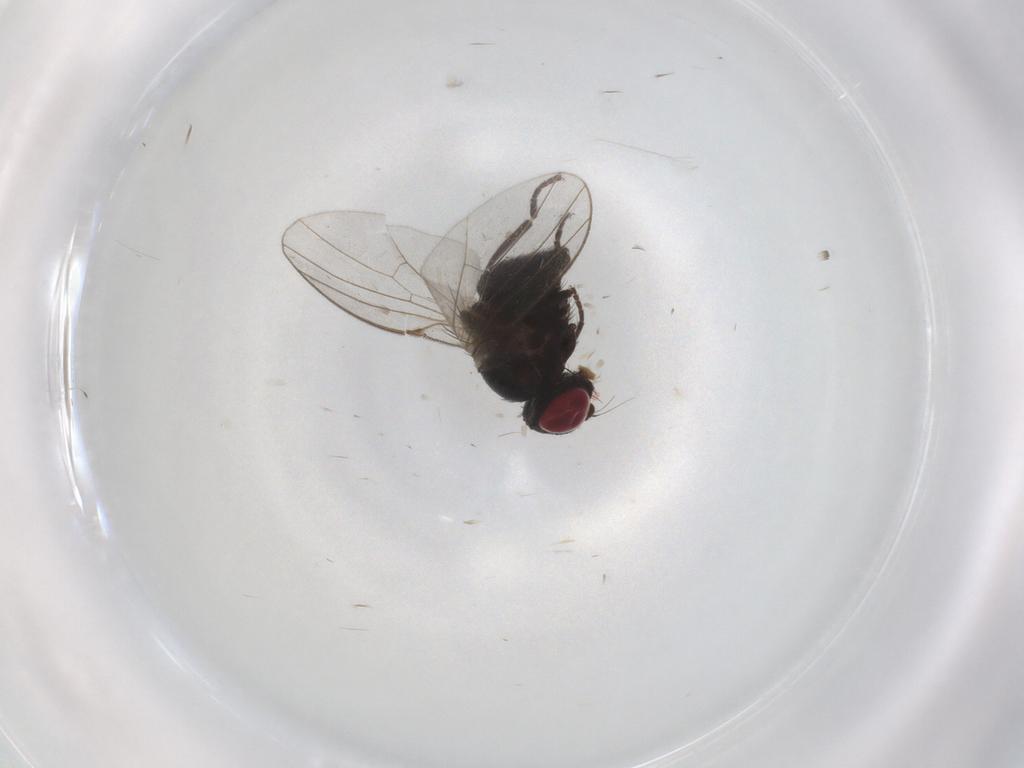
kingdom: Animalia
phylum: Arthropoda
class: Insecta
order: Diptera
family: Agromyzidae
